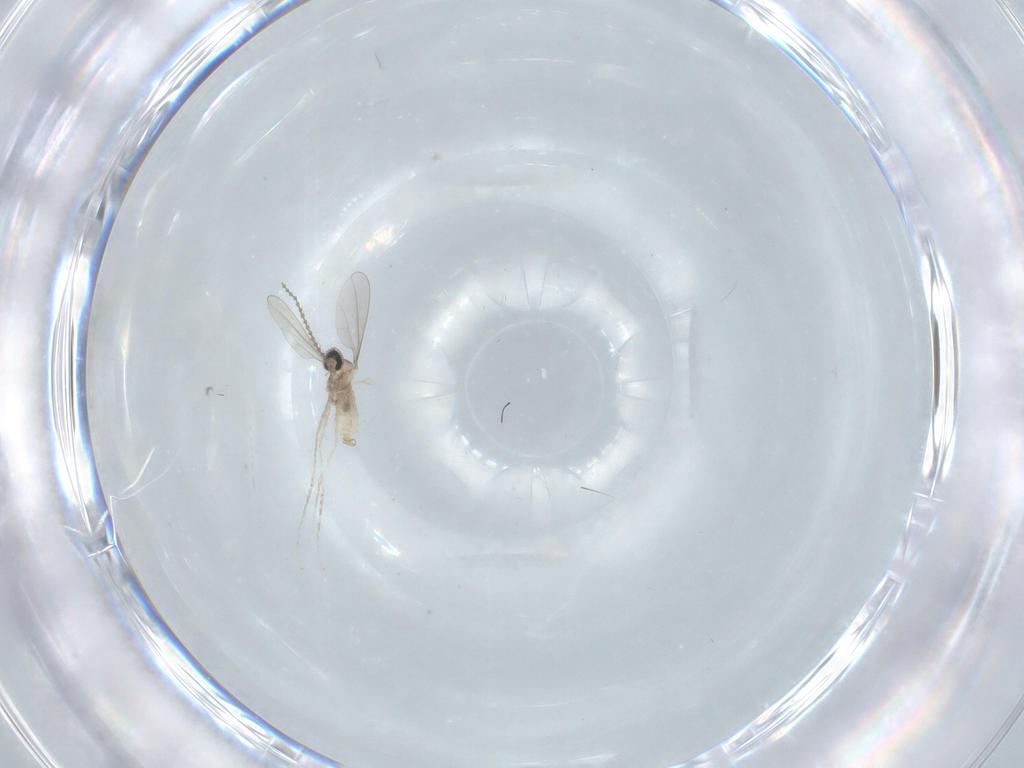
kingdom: Animalia
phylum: Arthropoda
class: Insecta
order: Diptera
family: Cecidomyiidae
